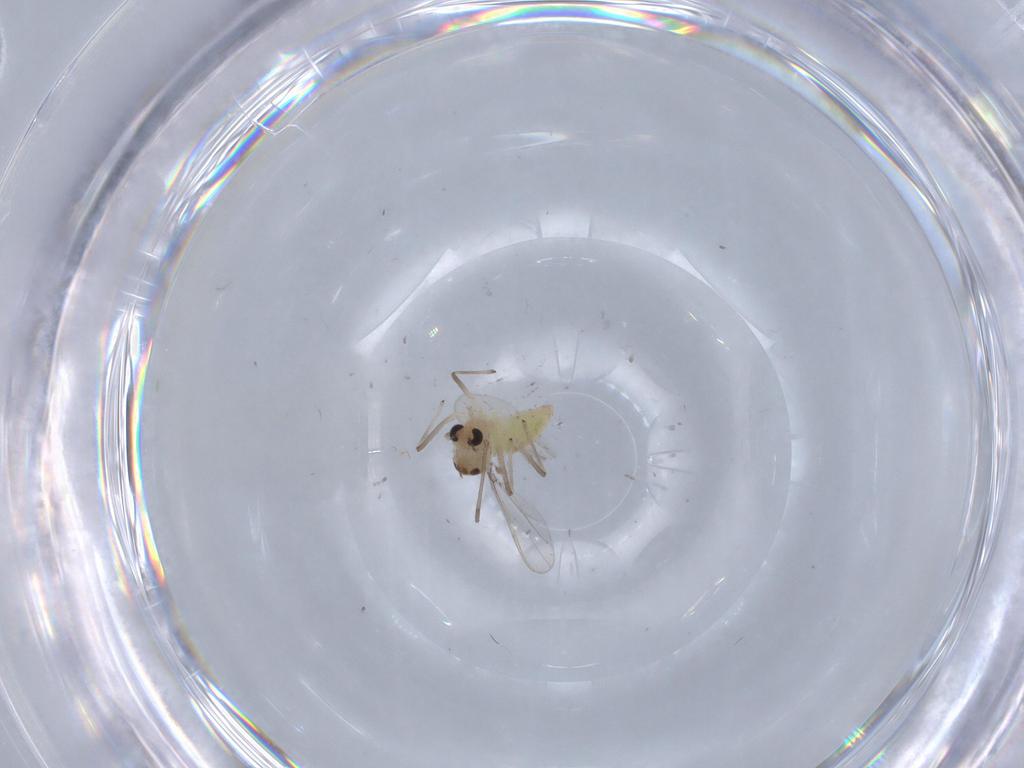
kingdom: Animalia
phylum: Arthropoda
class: Insecta
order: Diptera
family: Chironomidae
